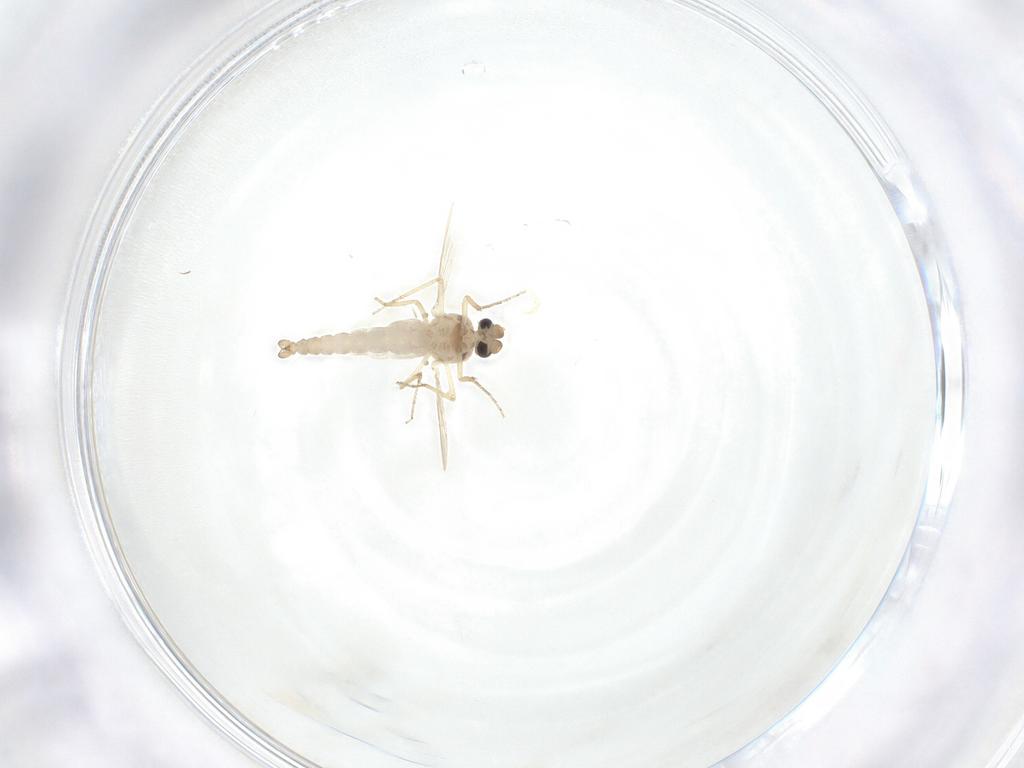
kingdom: Animalia
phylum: Arthropoda
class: Insecta
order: Diptera
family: Ceratopogonidae
